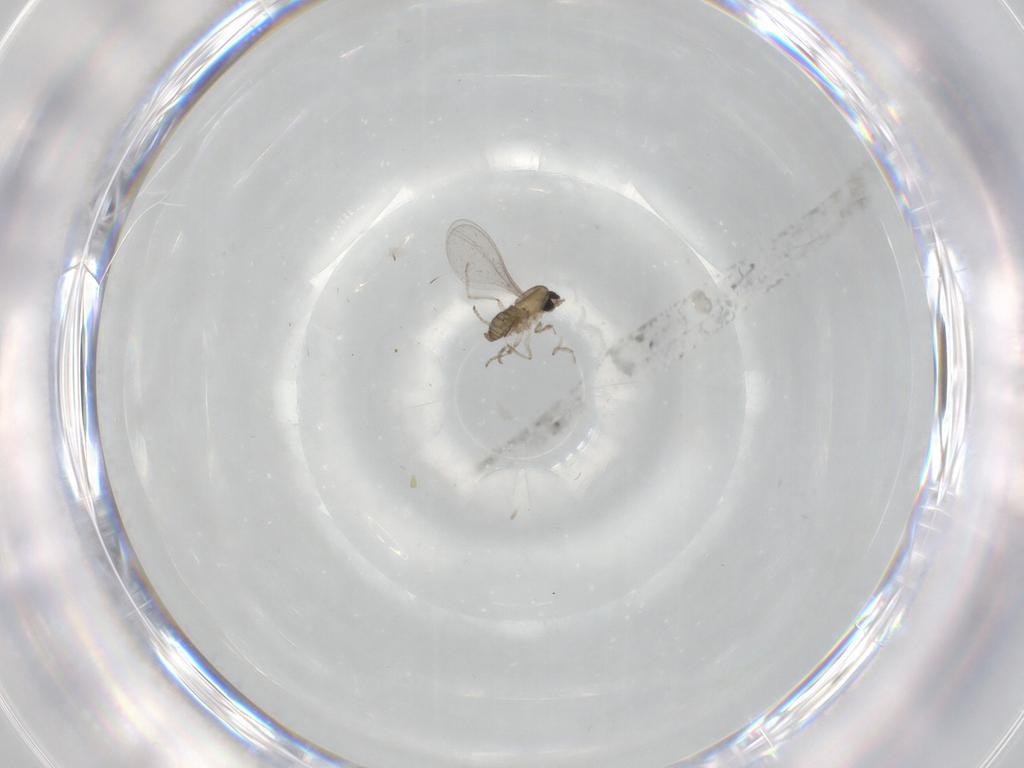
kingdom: Animalia
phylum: Arthropoda
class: Insecta
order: Diptera
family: Cecidomyiidae
